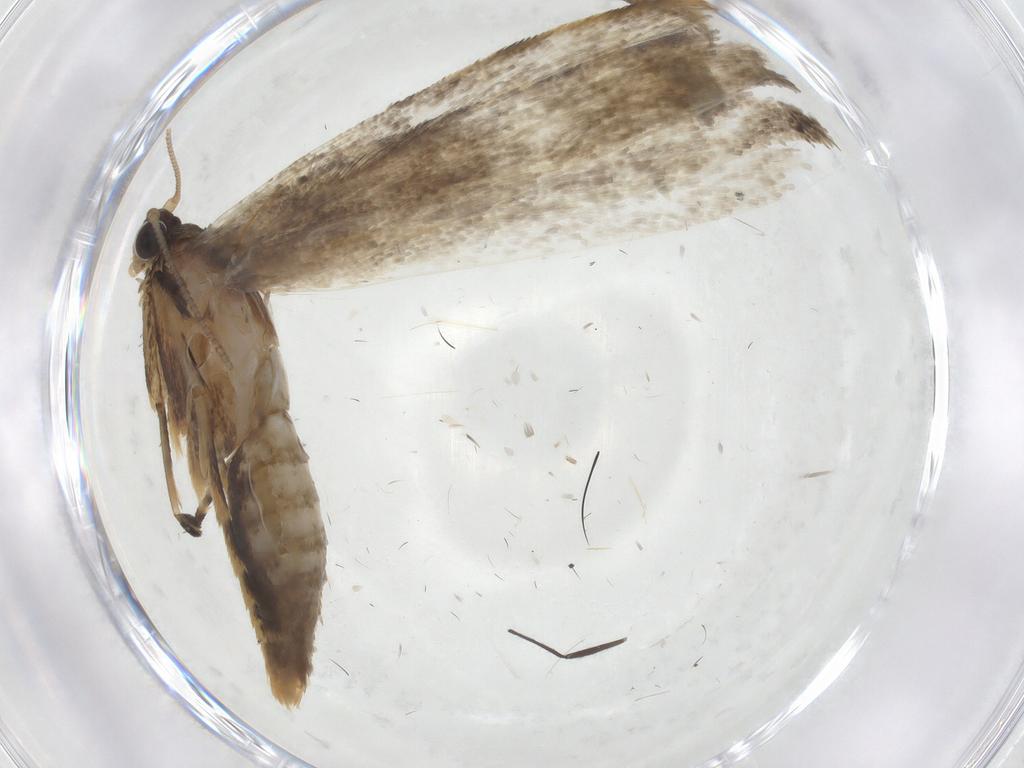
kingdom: Animalia
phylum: Arthropoda
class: Insecta
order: Lepidoptera
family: Tineidae
